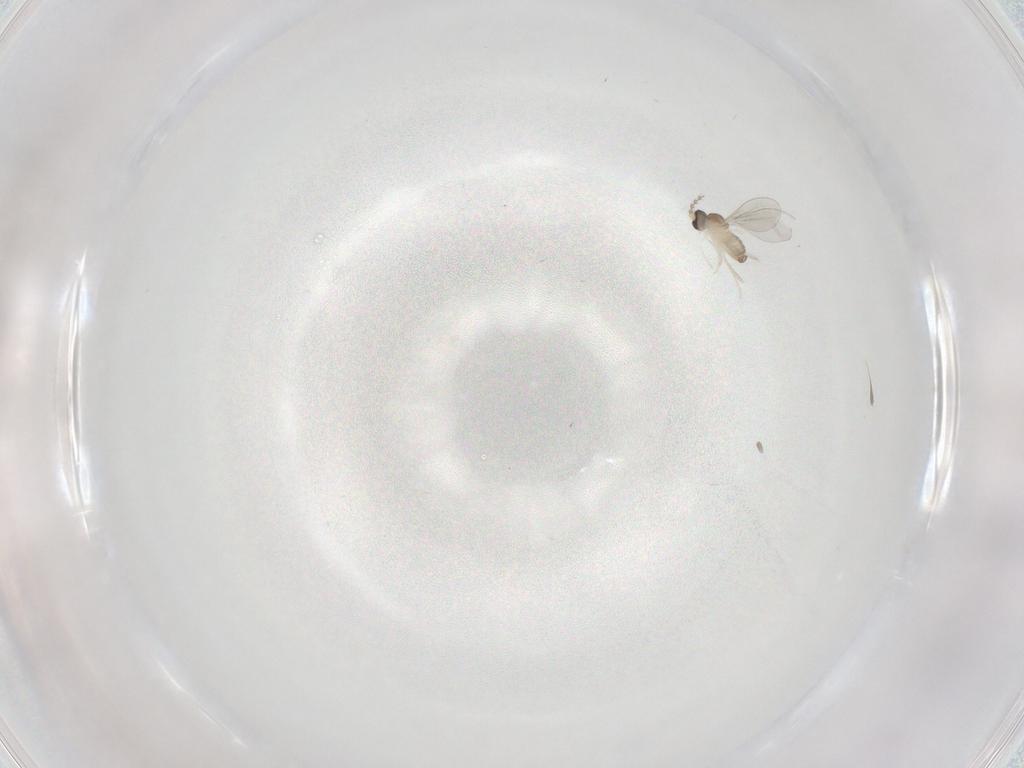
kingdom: Animalia
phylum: Arthropoda
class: Insecta
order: Diptera
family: Cecidomyiidae
